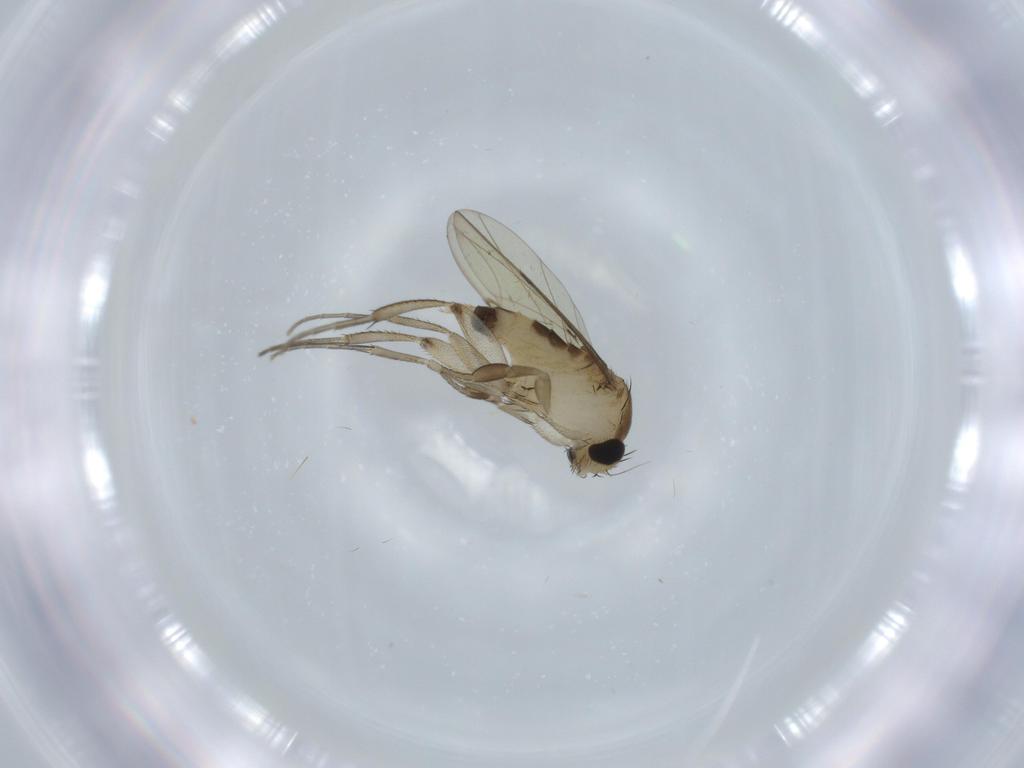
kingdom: Animalia
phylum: Arthropoda
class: Insecta
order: Diptera
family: Phoridae
